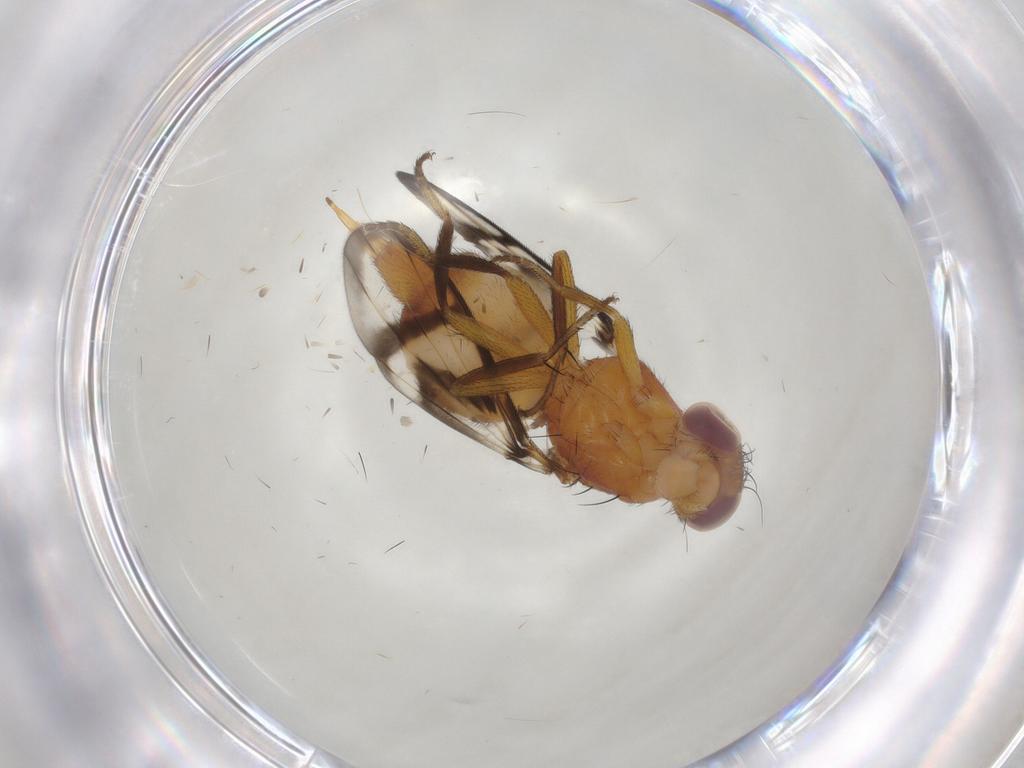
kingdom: Animalia
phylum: Arthropoda
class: Insecta
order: Diptera
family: Ulidiidae
